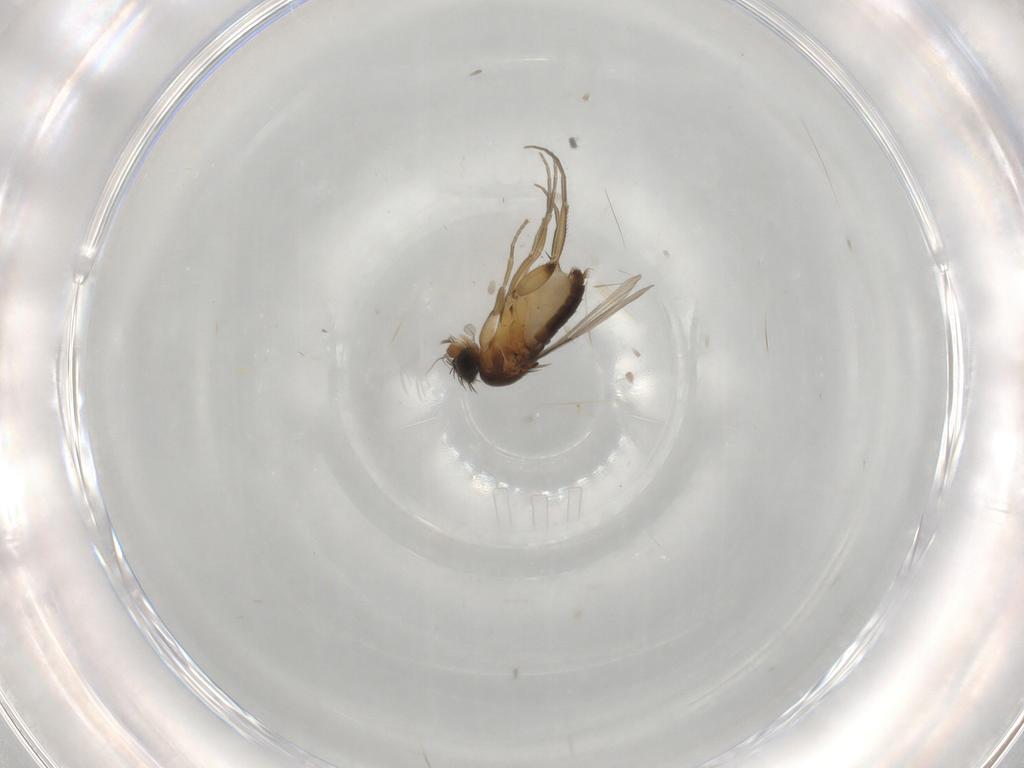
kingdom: Animalia
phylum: Arthropoda
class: Insecta
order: Diptera
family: Phoridae
